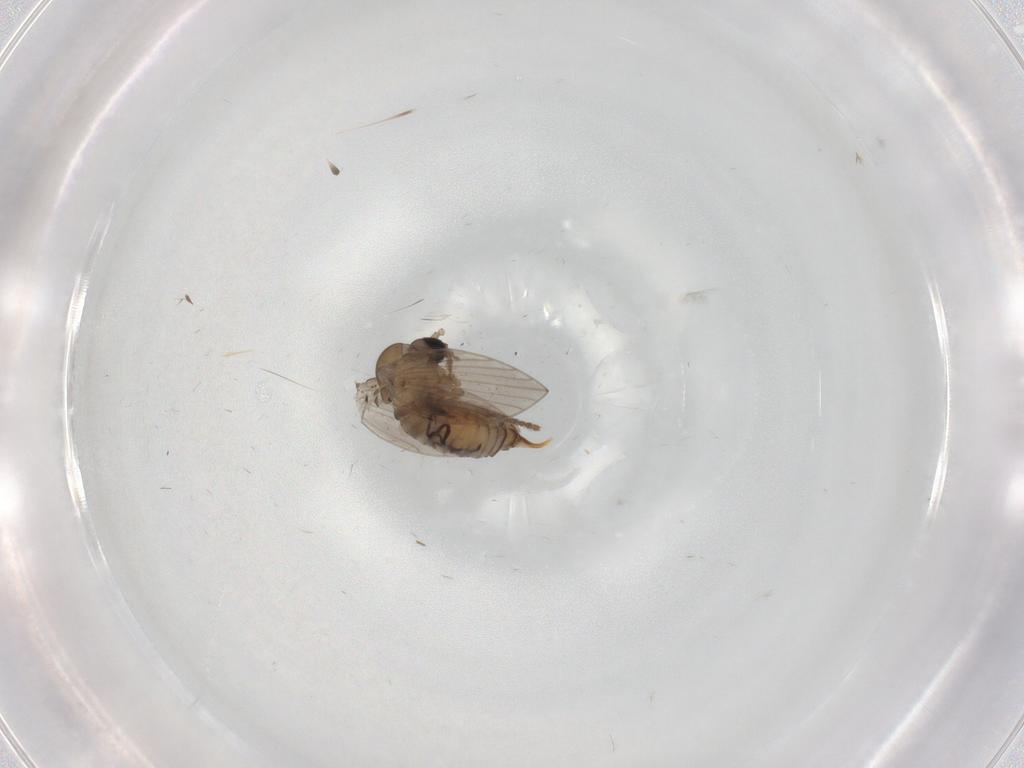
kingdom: Animalia
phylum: Arthropoda
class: Insecta
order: Diptera
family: Psychodidae
